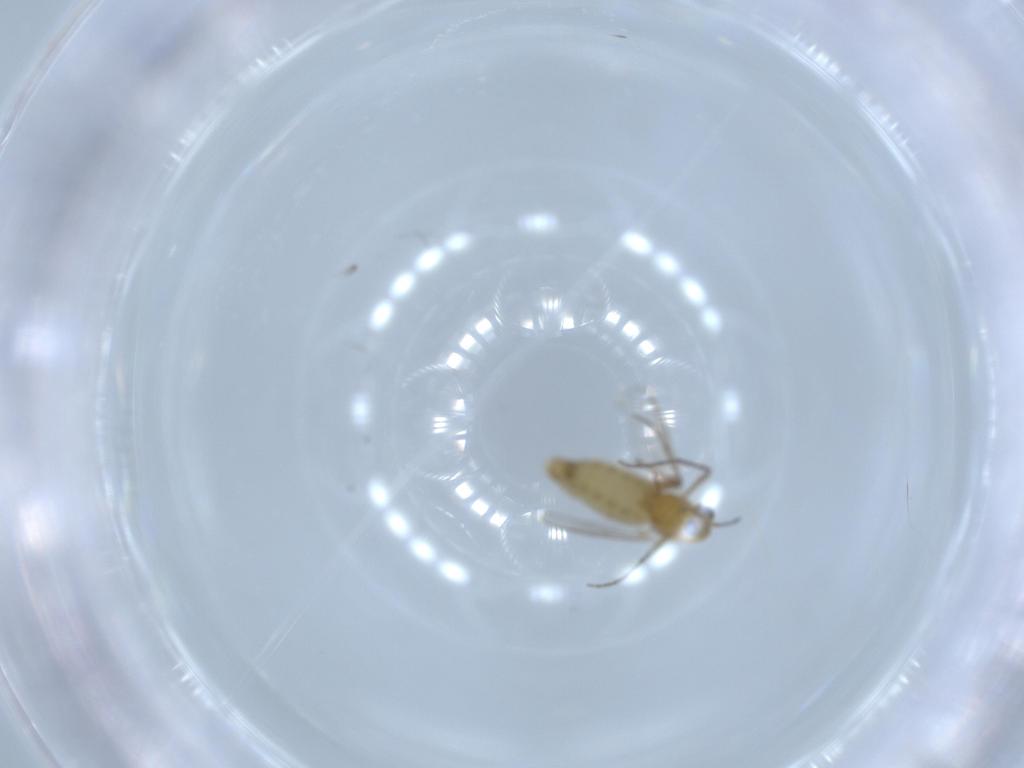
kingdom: Animalia
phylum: Arthropoda
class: Insecta
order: Diptera
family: Chironomidae
